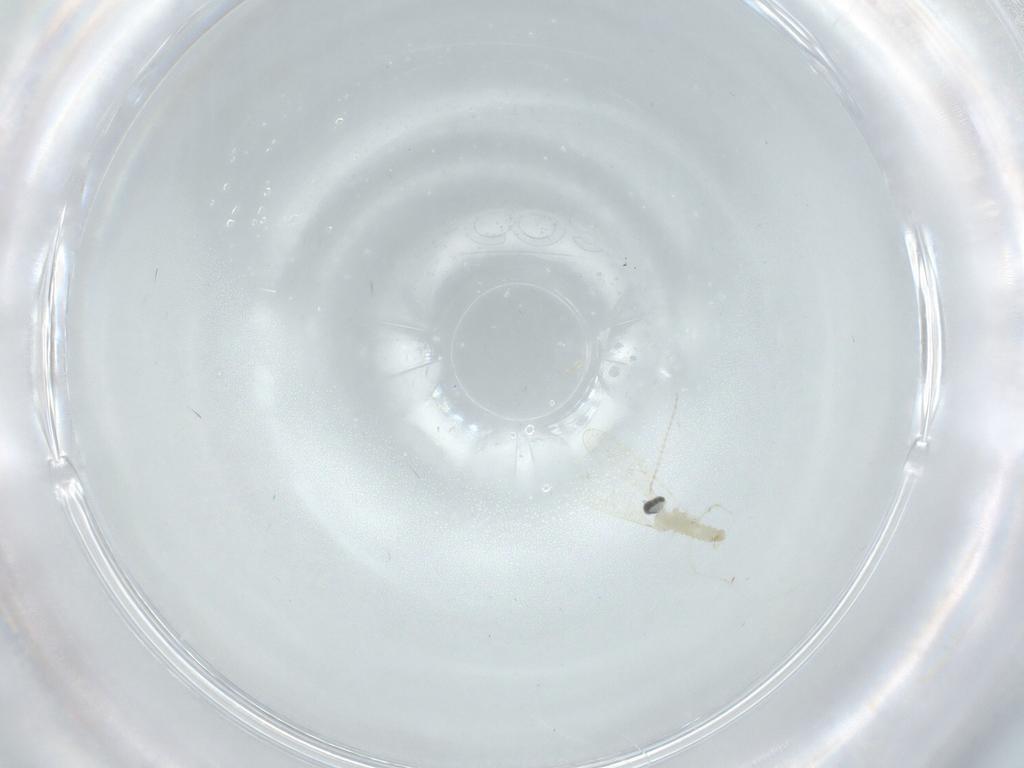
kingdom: Animalia
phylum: Arthropoda
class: Insecta
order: Diptera
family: Cecidomyiidae
